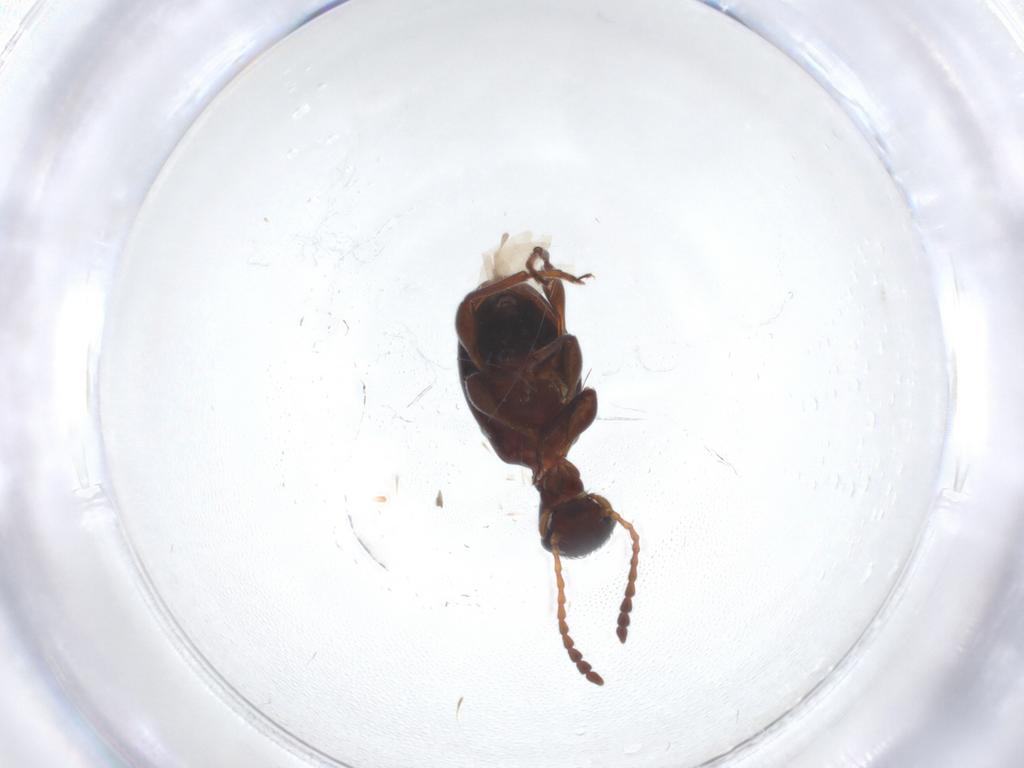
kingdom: Animalia
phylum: Arthropoda
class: Insecta
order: Coleoptera
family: Anthicidae
